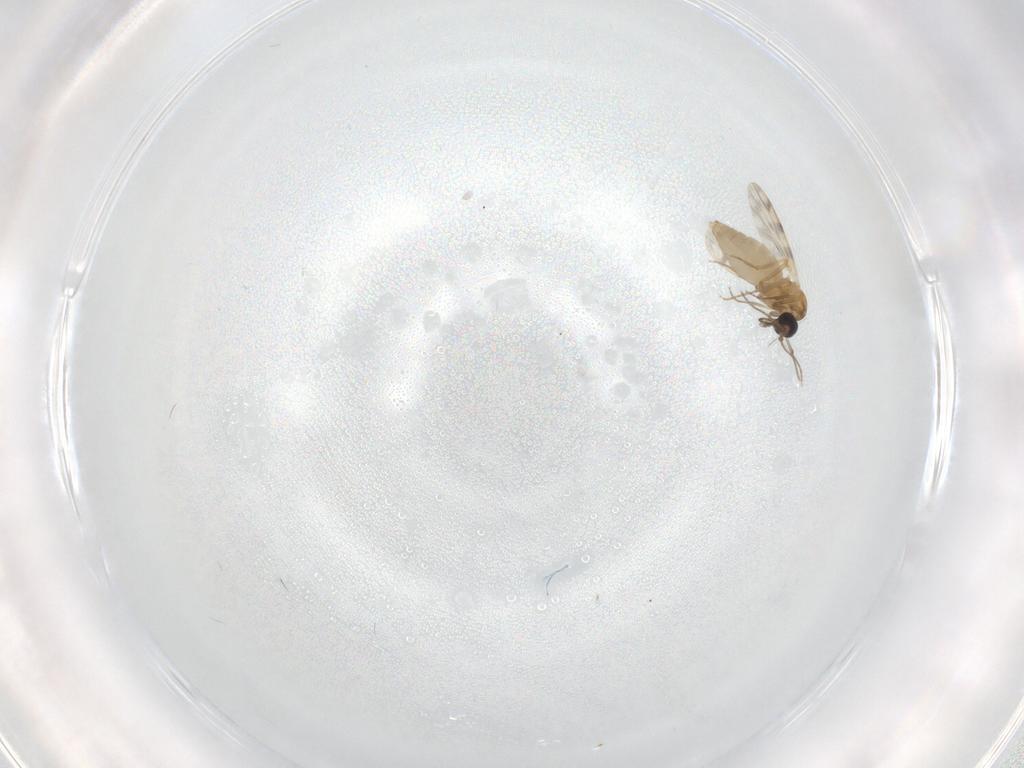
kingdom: Animalia
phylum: Arthropoda
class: Insecta
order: Diptera
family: Ceratopogonidae
